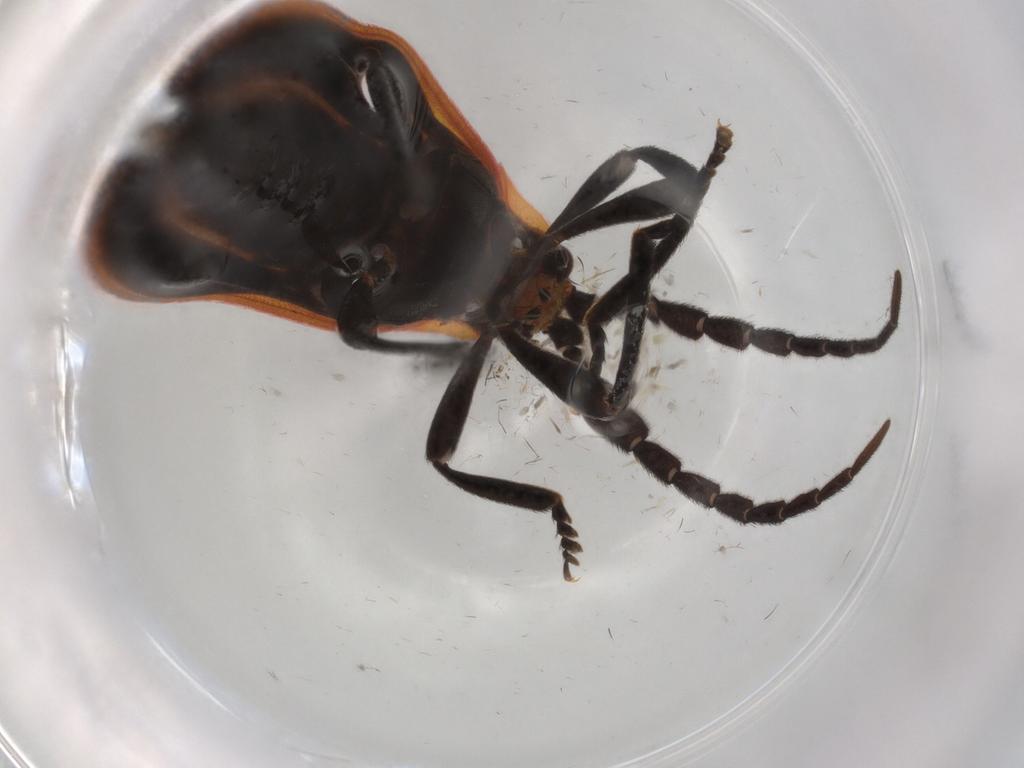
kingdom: Animalia
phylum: Arthropoda
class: Insecta
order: Coleoptera
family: Lycidae
